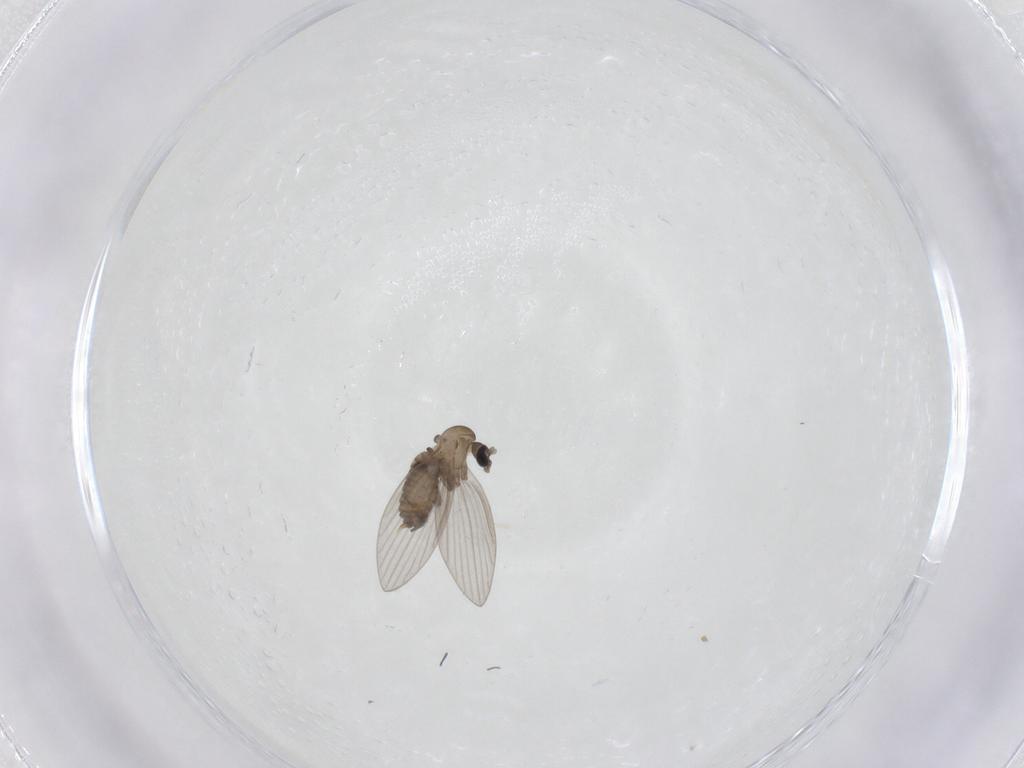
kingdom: Animalia
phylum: Arthropoda
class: Insecta
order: Diptera
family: Psychodidae
